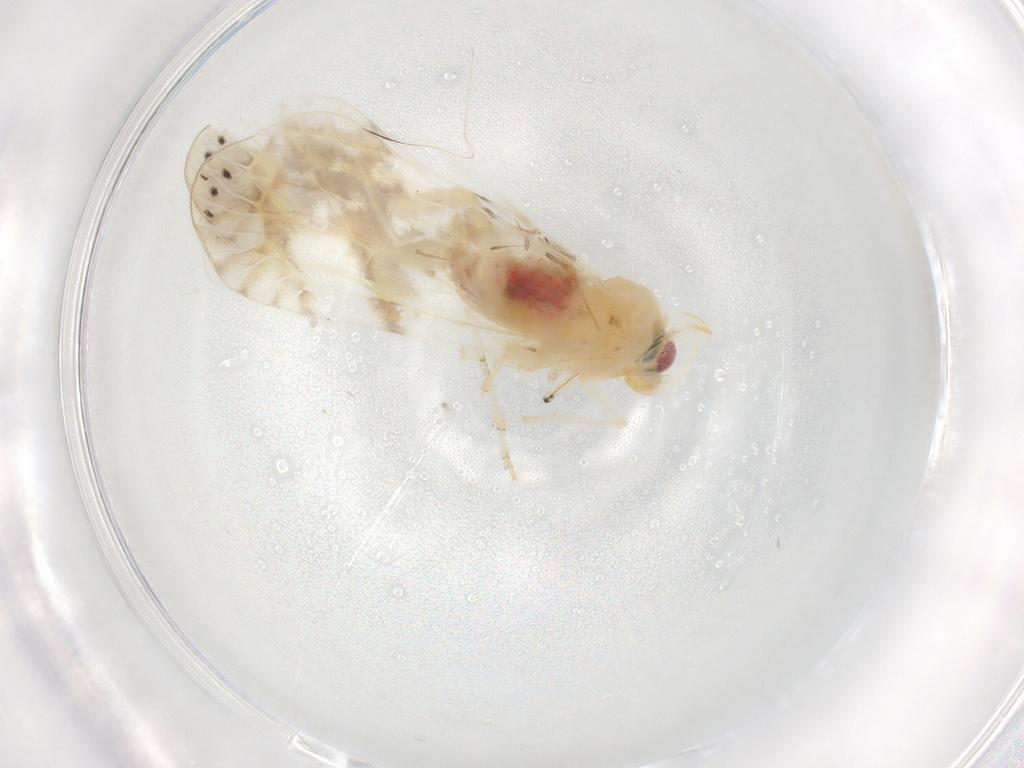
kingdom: Animalia
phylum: Arthropoda
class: Insecta
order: Hemiptera
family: Derbidae
